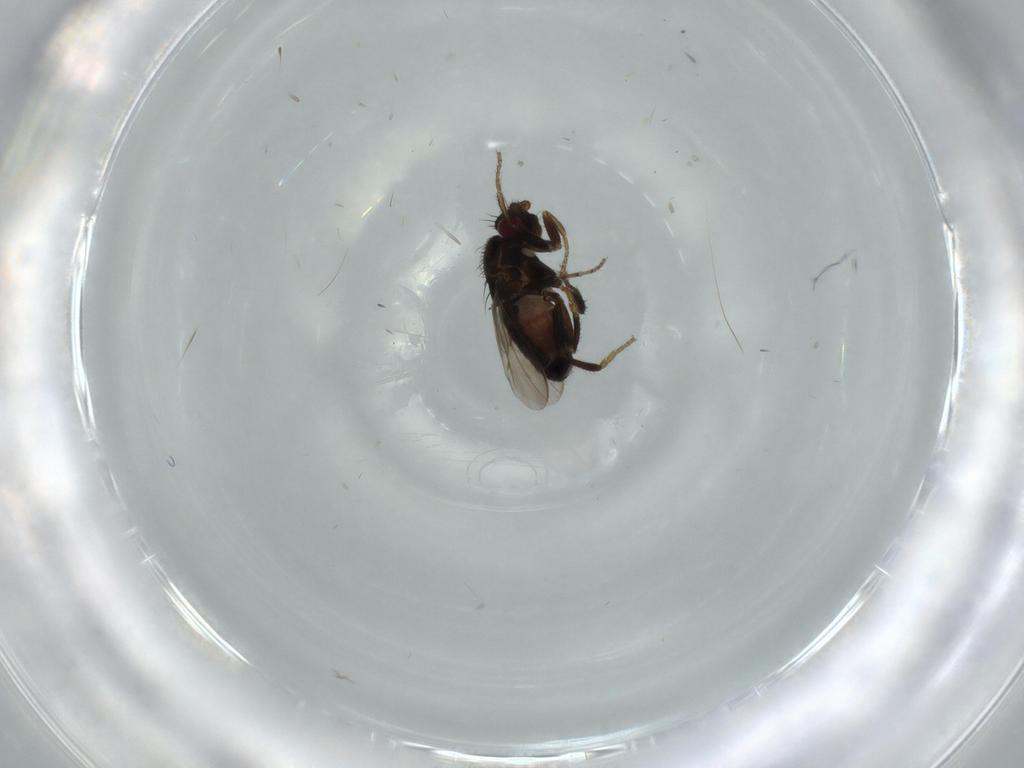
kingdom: Animalia
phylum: Arthropoda
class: Insecta
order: Diptera
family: Sphaeroceridae
